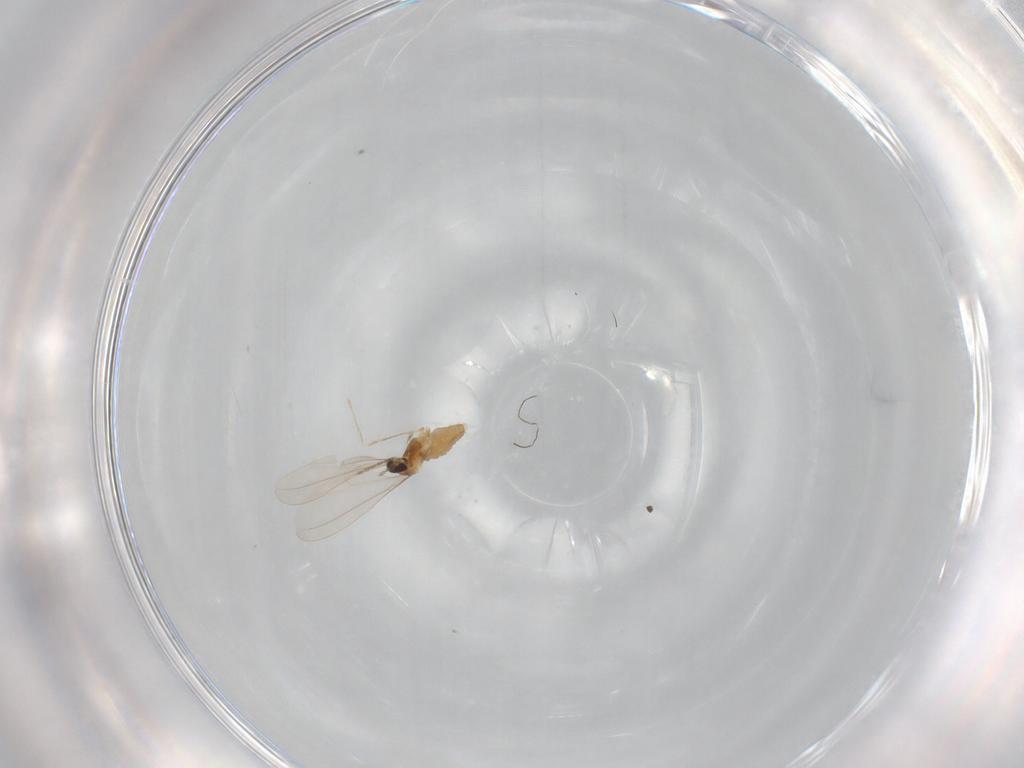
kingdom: Animalia
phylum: Arthropoda
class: Insecta
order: Diptera
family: Cecidomyiidae
